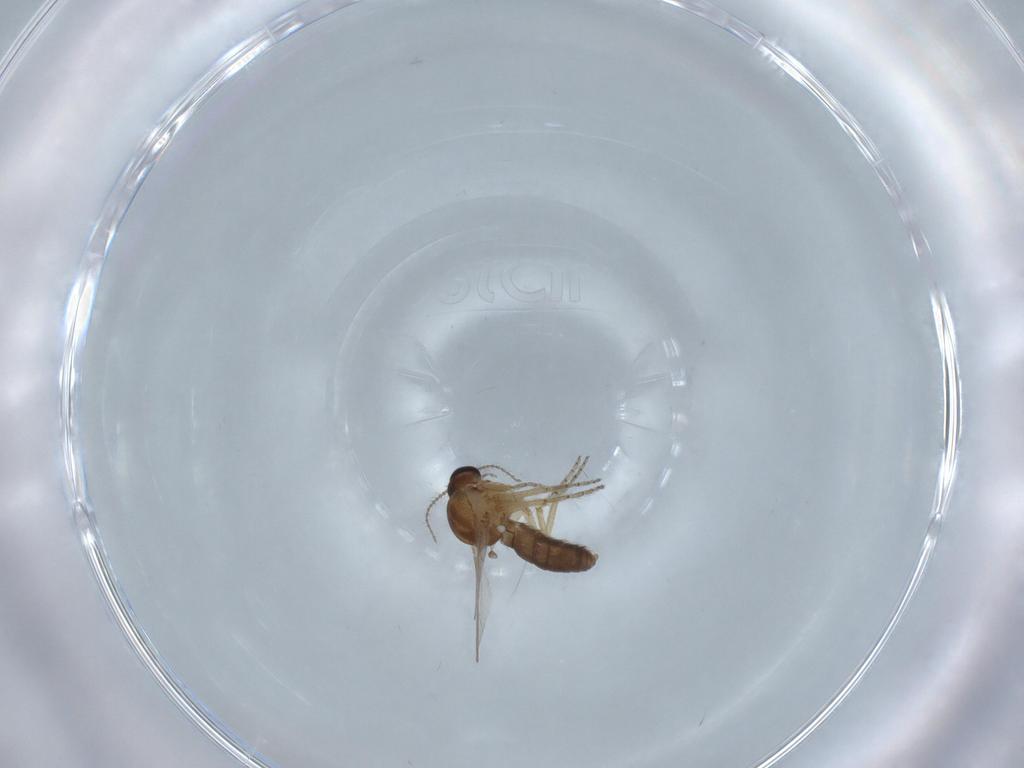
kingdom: Animalia
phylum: Arthropoda
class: Insecta
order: Diptera
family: Ceratopogonidae
